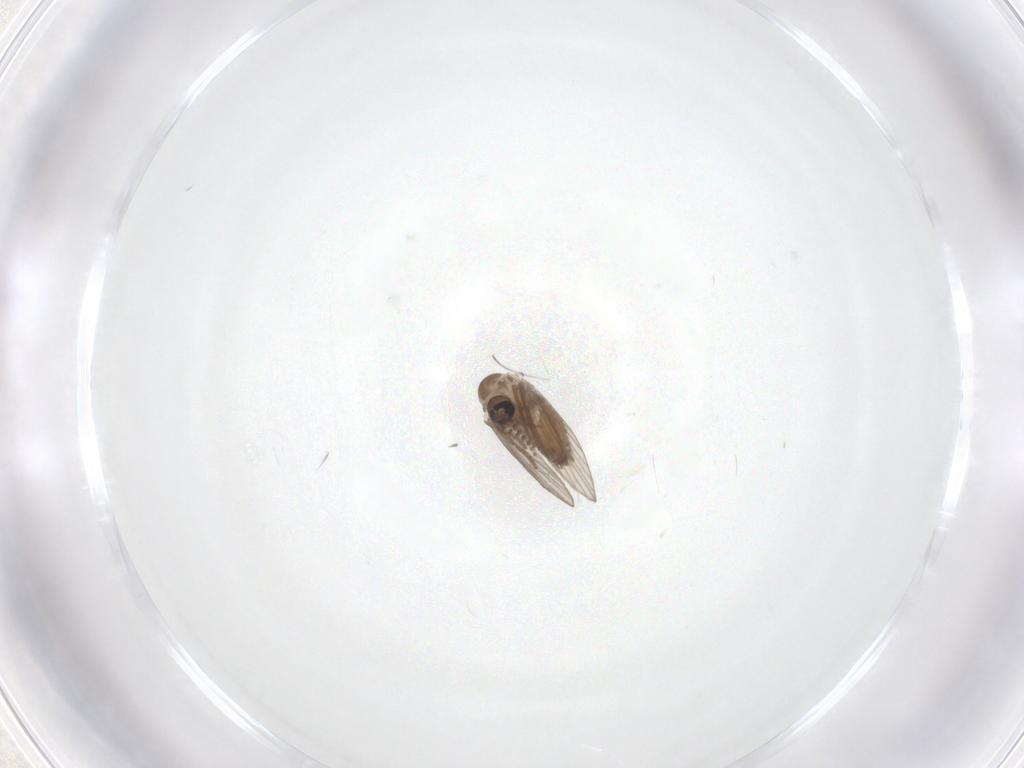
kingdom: Animalia
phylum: Arthropoda
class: Insecta
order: Diptera
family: Psychodidae
